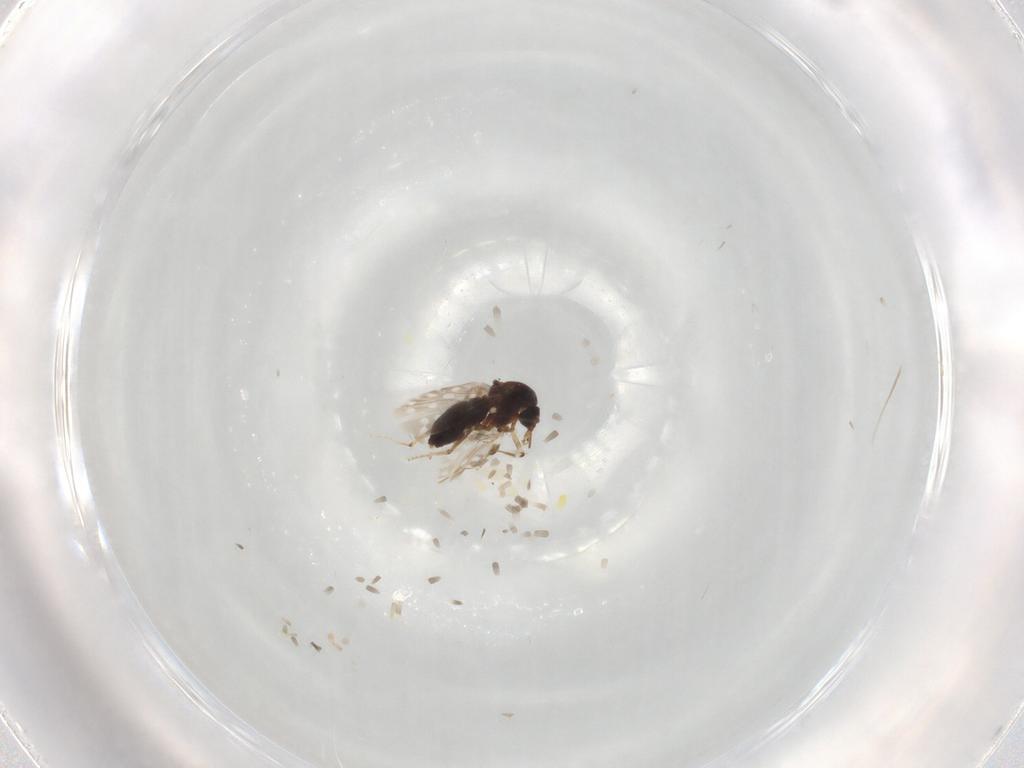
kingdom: Animalia
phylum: Arthropoda
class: Insecta
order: Diptera
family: Ceratopogonidae
